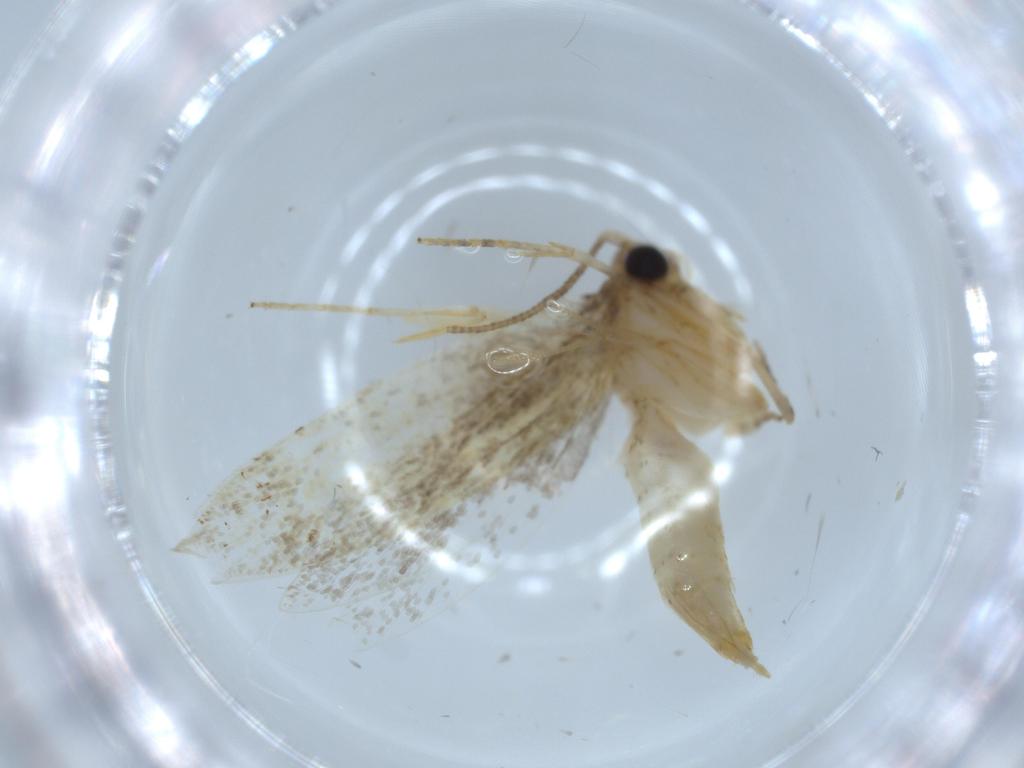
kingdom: Animalia
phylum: Arthropoda
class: Insecta
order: Lepidoptera
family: Tineidae
